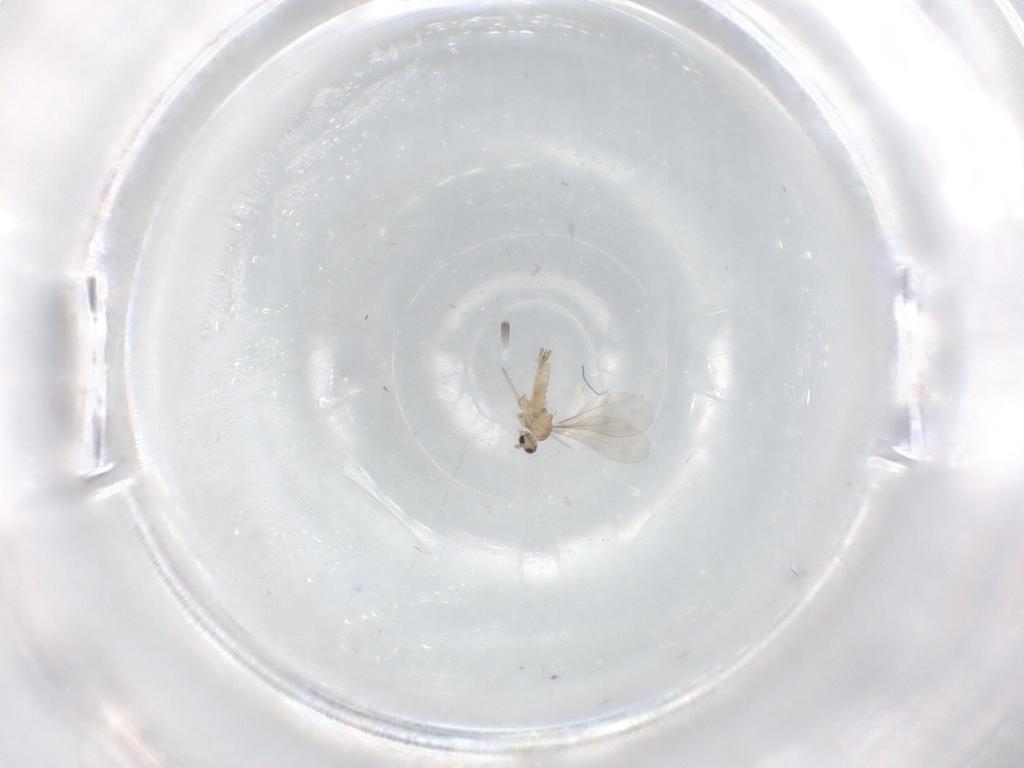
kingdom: Animalia
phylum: Arthropoda
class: Insecta
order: Diptera
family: Cecidomyiidae
